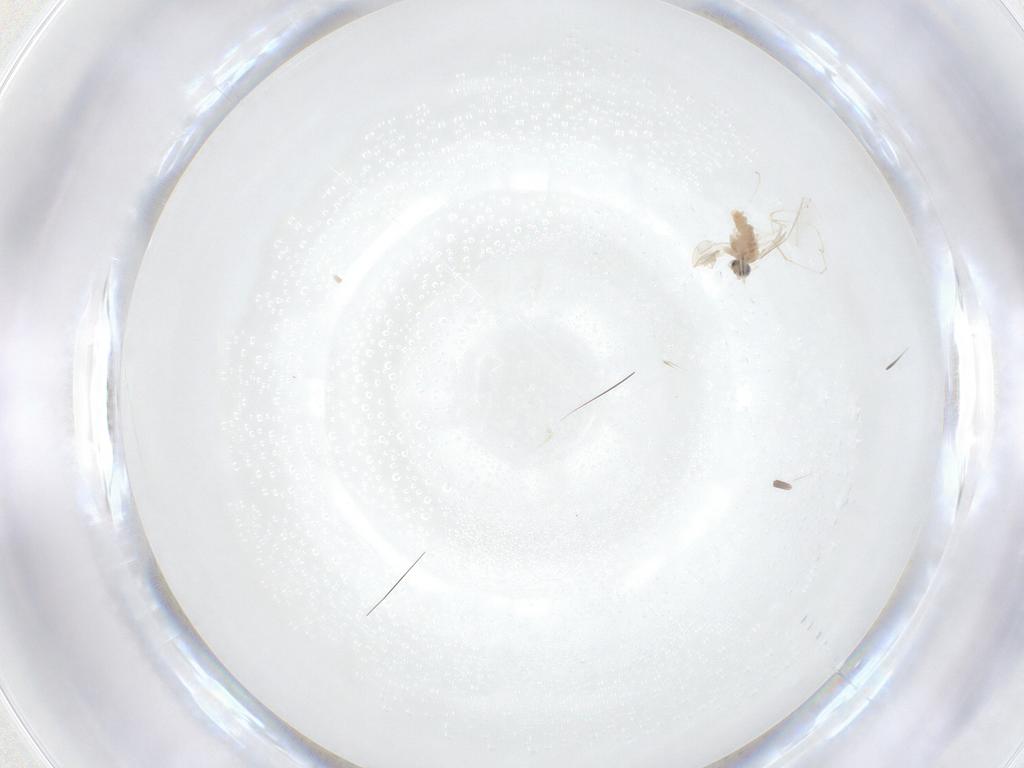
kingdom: Animalia
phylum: Arthropoda
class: Insecta
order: Diptera
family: Cecidomyiidae
